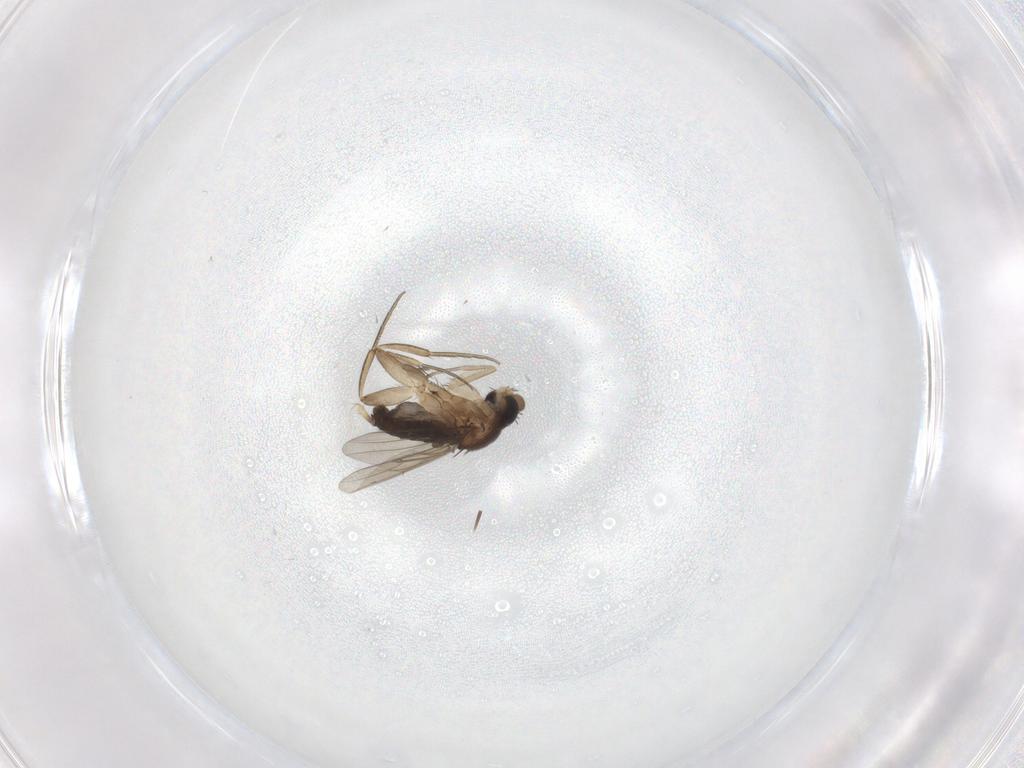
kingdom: Animalia
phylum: Arthropoda
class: Insecta
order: Diptera
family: Phoridae
